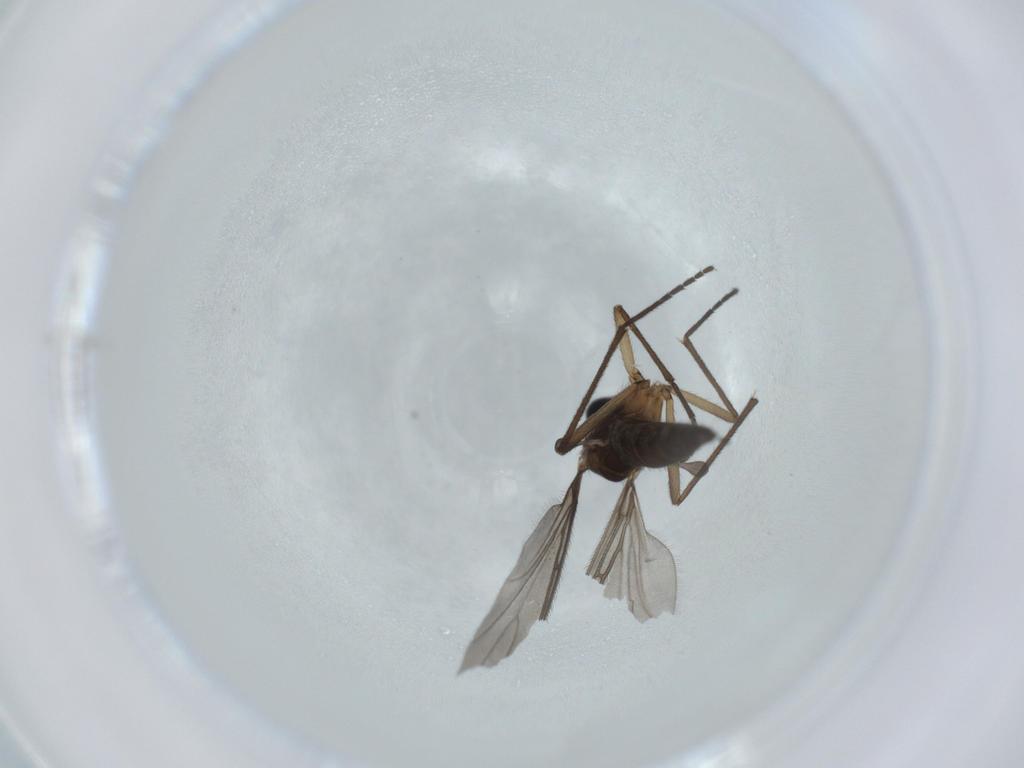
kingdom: Animalia
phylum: Arthropoda
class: Insecta
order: Diptera
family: Sciaridae
